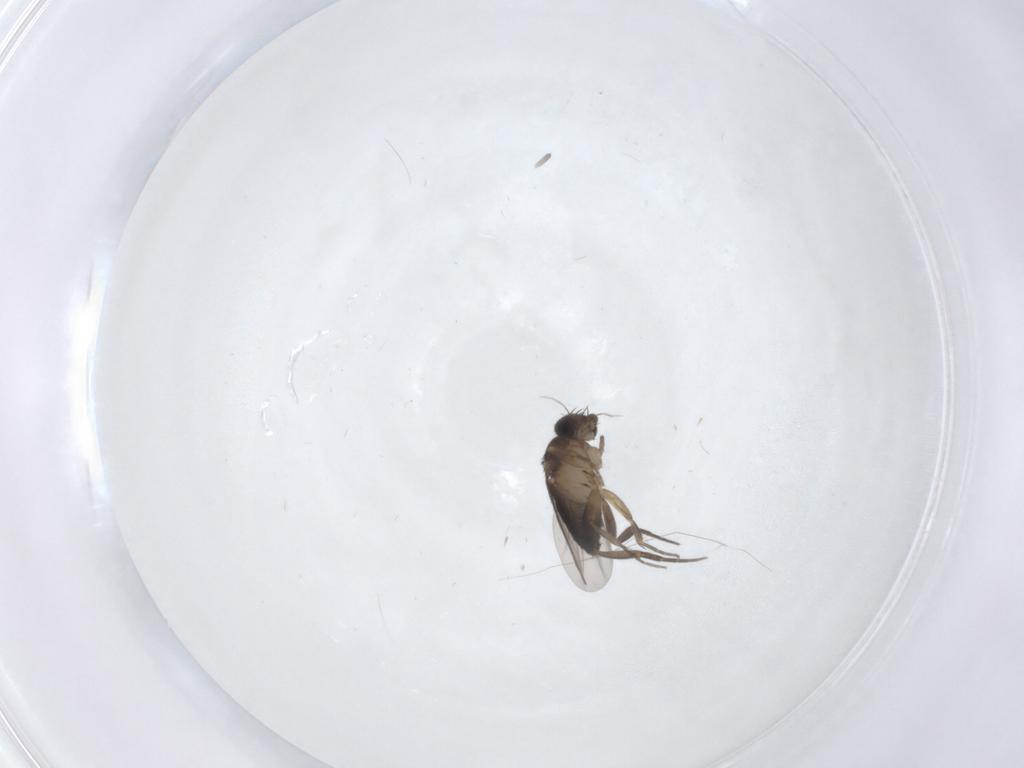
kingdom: Animalia
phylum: Arthropoda
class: Insecta
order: Diptera
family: Phoridae
